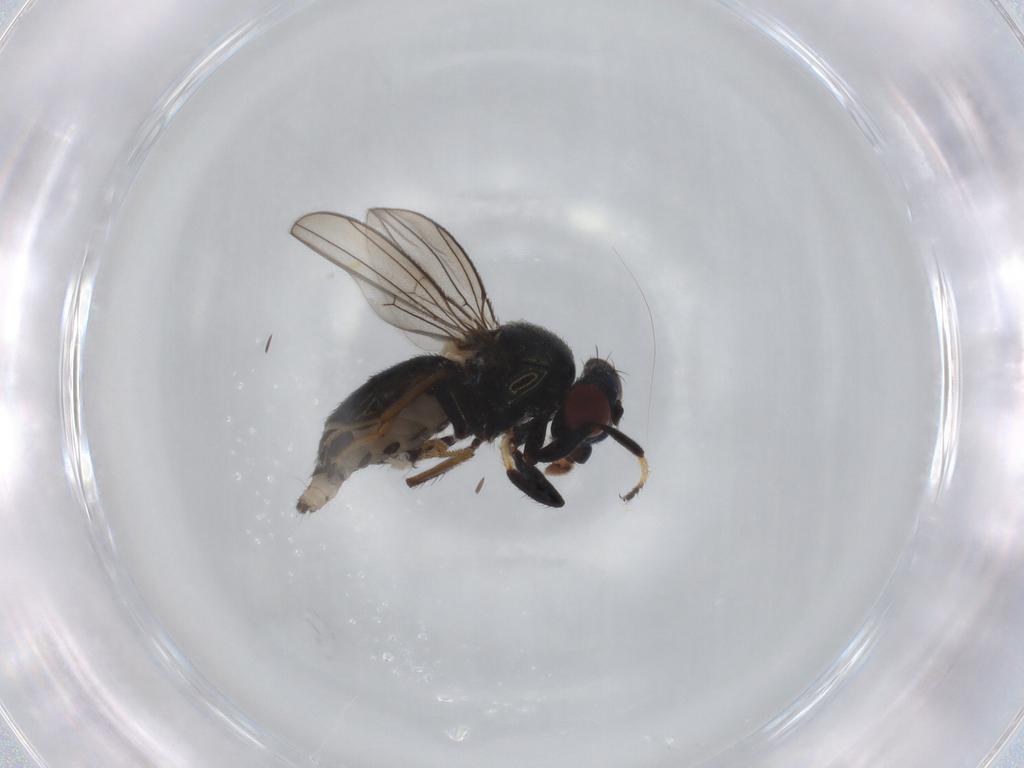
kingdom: Animalia
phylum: Arthropoda
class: Insecta
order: Diptera
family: Ephydridae
